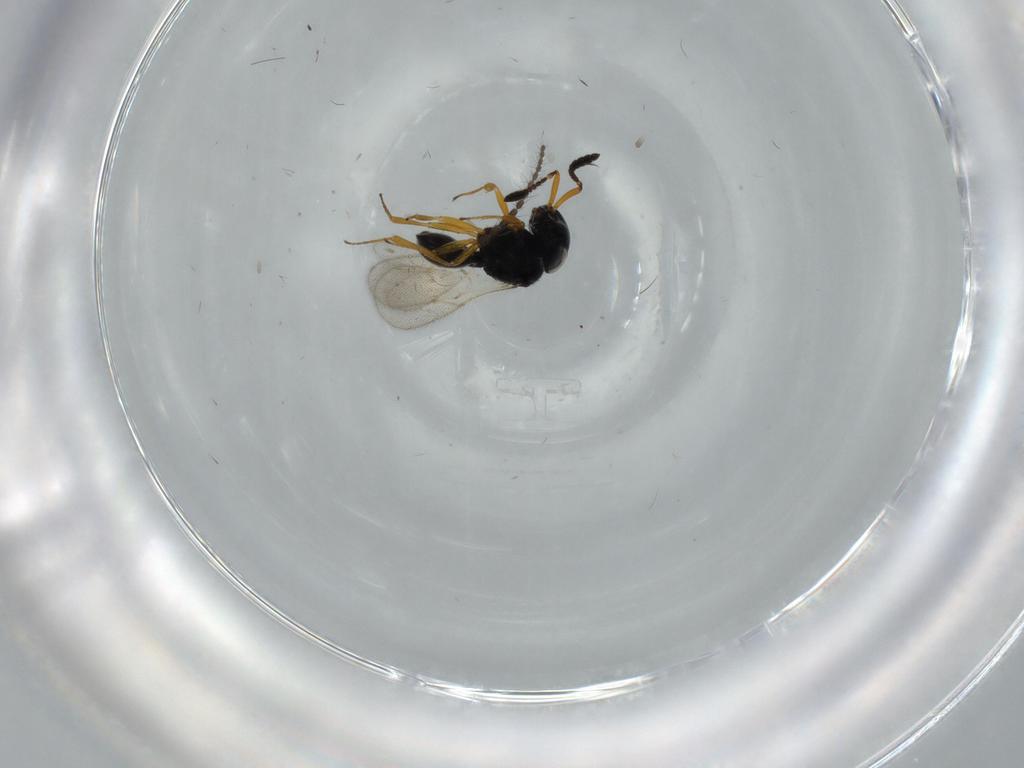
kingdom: Animalia
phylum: Arthropoda
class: Insecta
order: Hymenoptera
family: Scelionidae
